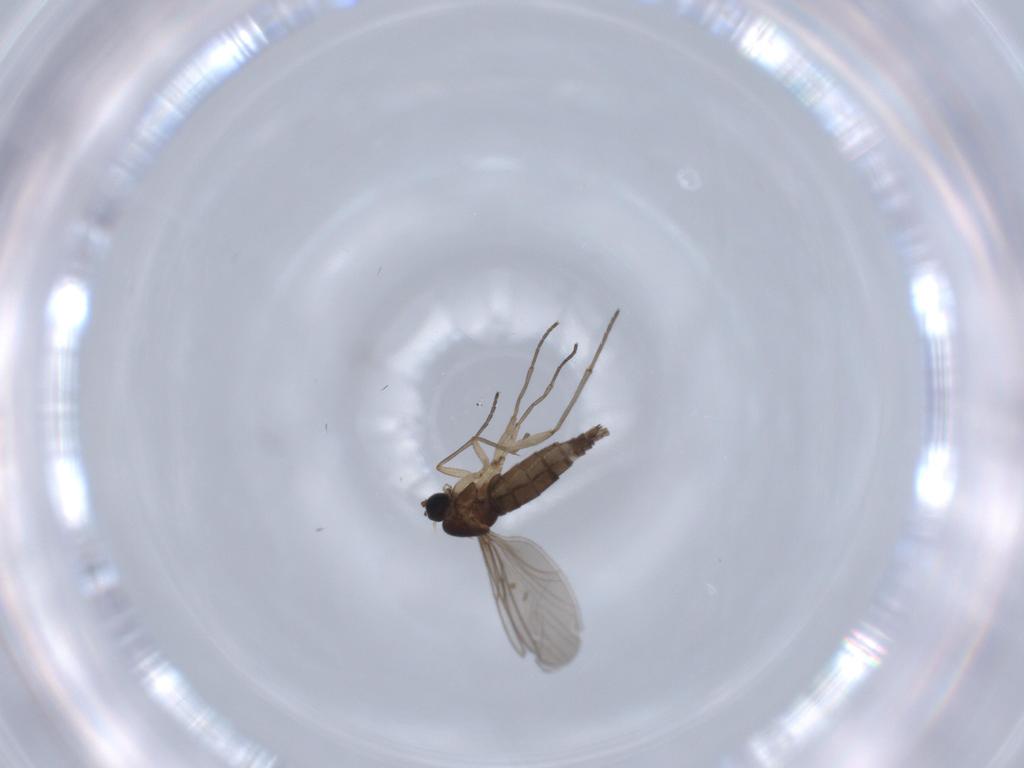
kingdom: Animalia
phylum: Arthropoda
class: Insecta
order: Diptera
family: Sciaridae
